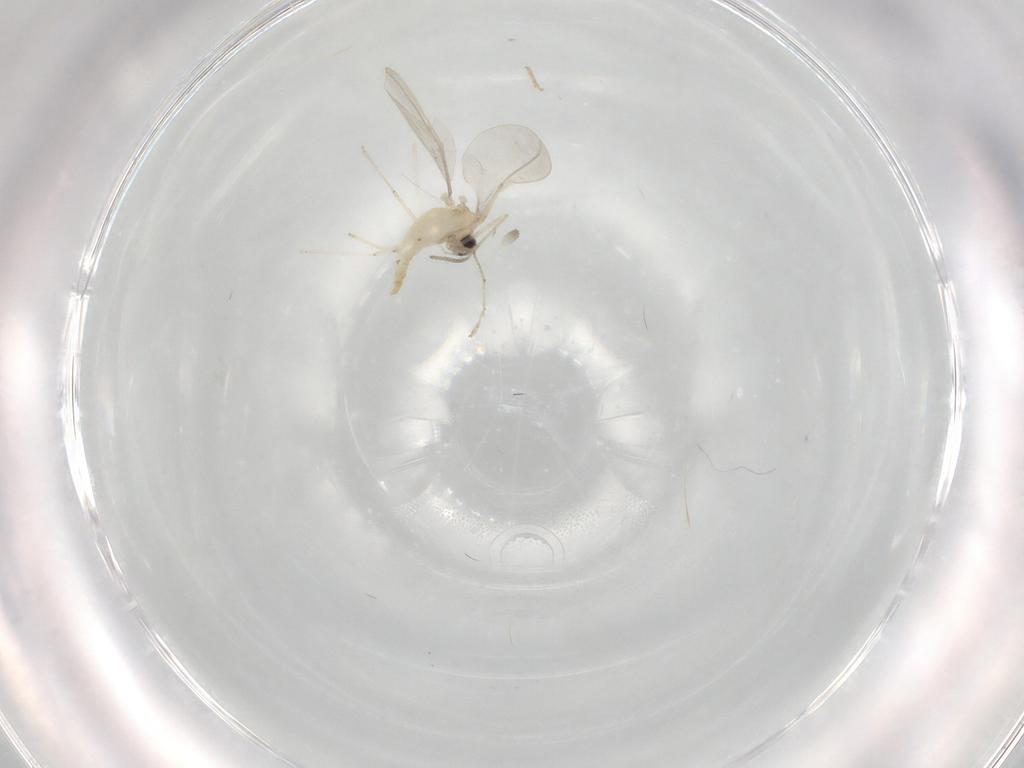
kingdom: Animalia
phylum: Arthropoda
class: Insecta
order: Diptera
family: Cecidomyiidae
